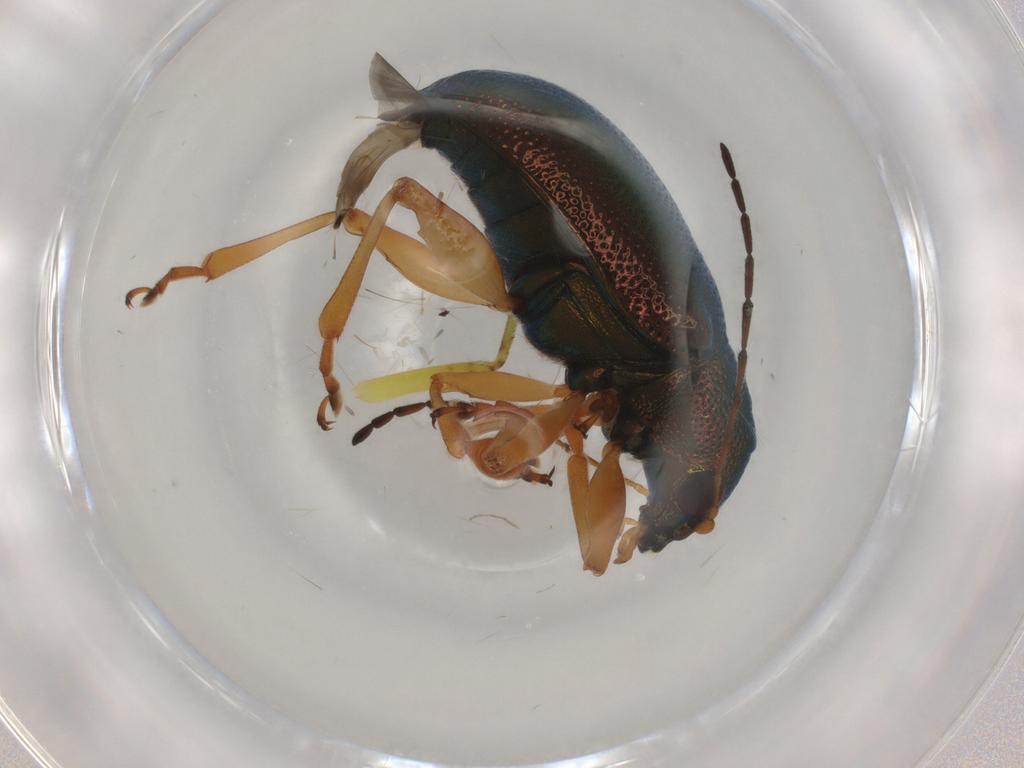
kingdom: Animalia
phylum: Arthropoda
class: Insecta
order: Coleoptera
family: Chrysomelidae
